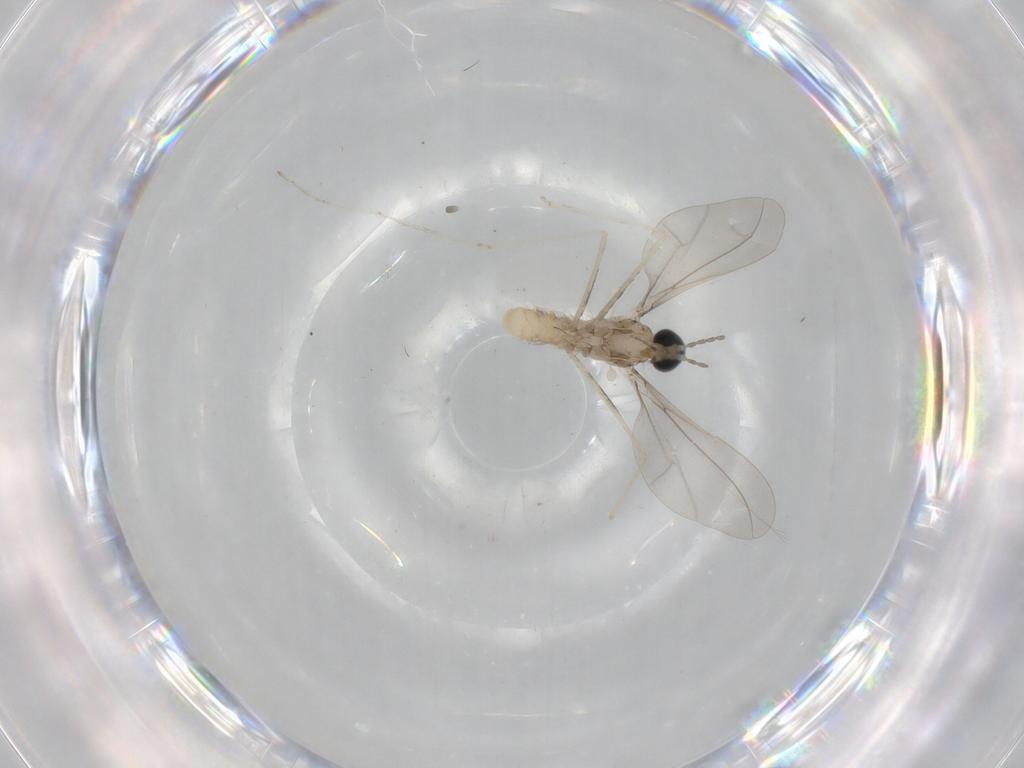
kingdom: Animalia
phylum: Arthropoda
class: Insecta
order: Diptera
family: Cecidomyiidae
